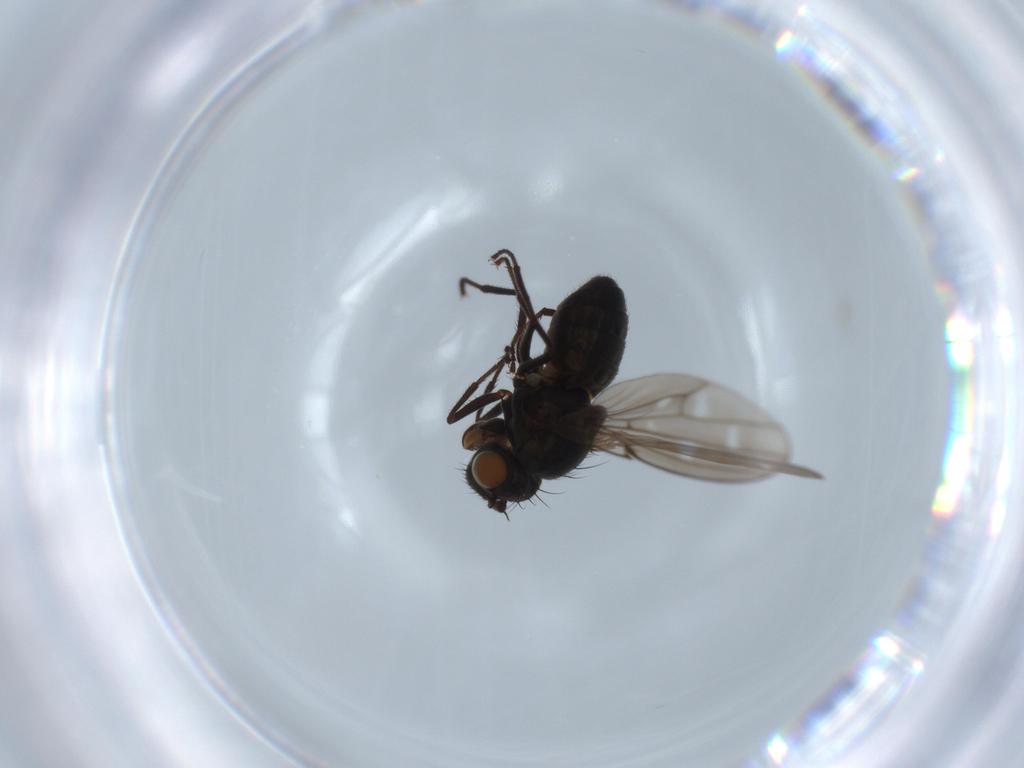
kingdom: Animalia
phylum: Arthropoda
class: Insecta
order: Diptera
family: Ephydridae
